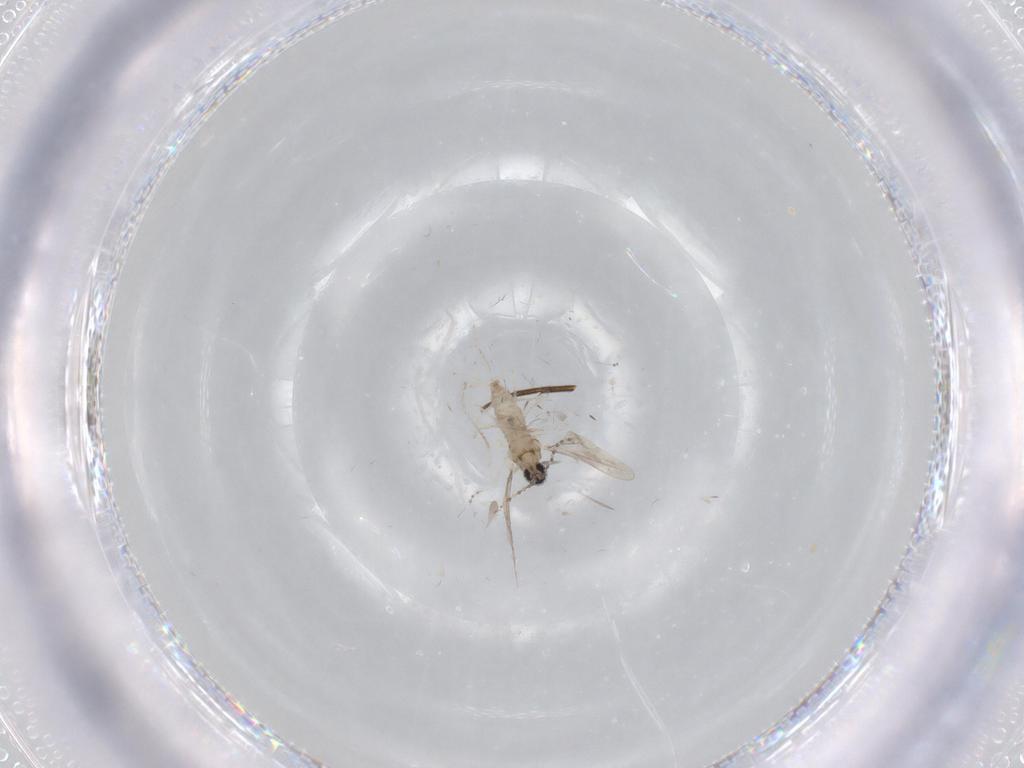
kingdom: Animalia
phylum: Arthropoda
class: Insecta
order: Diptera
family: Cecidomyiidae
